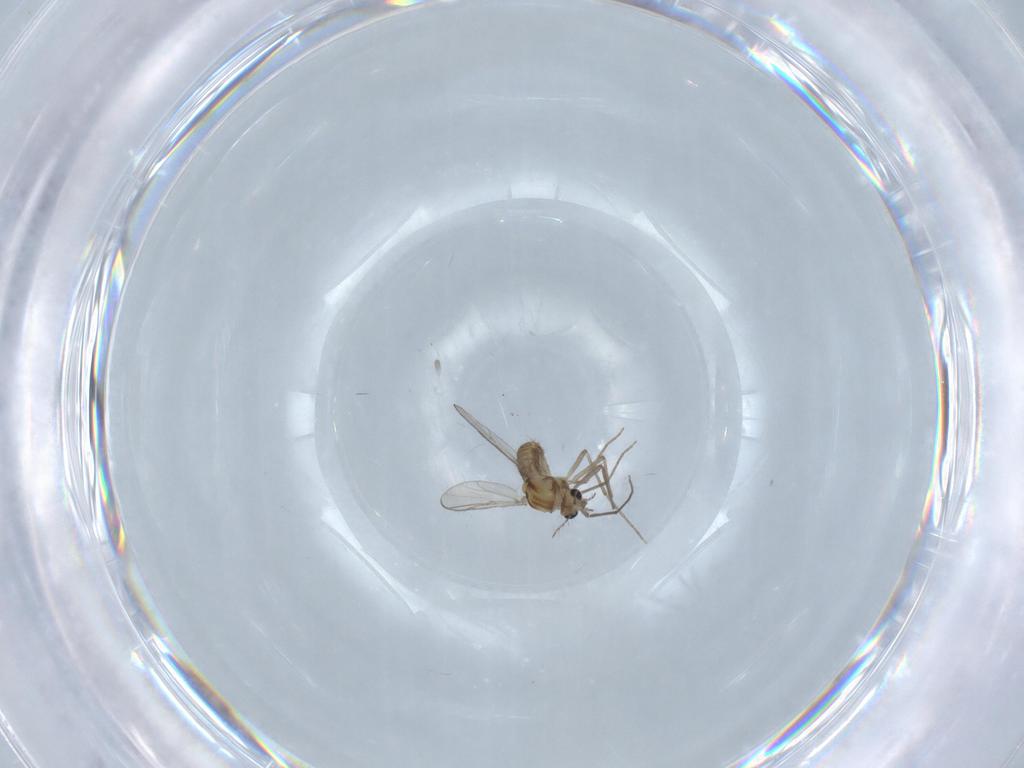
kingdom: Animalia
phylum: Arthropoda
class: Insecta
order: Diptera
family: Chironomidae
